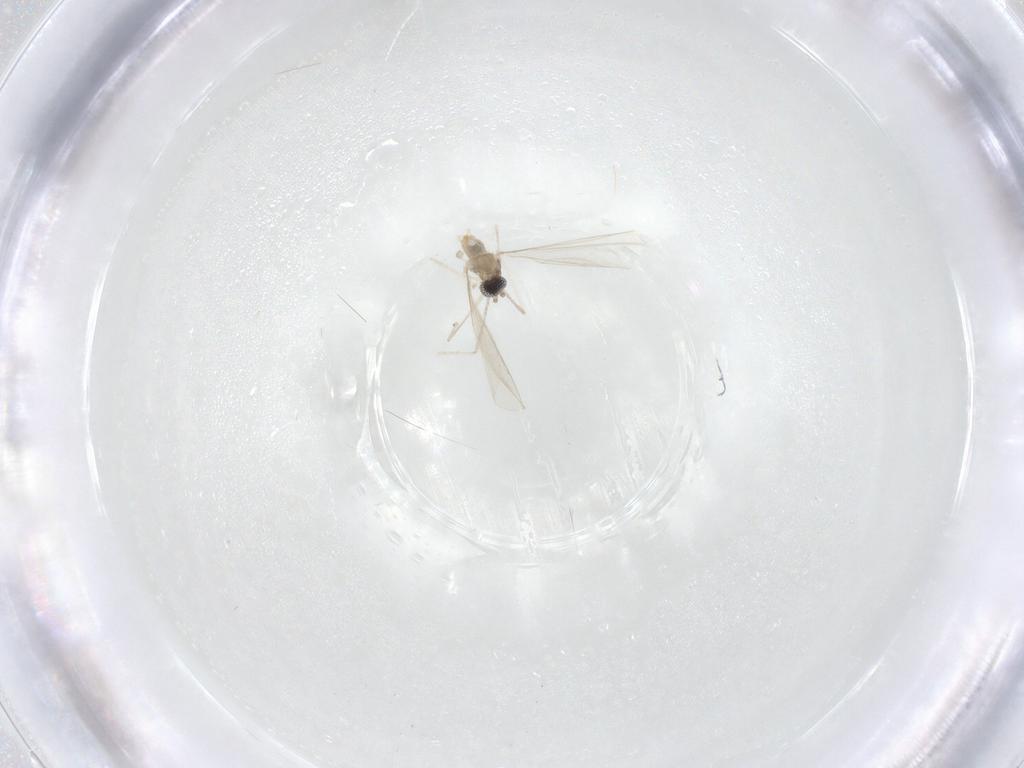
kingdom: Animalia
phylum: Arthropoda
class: Insecta
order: Diptera
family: Cecidomyiidae
